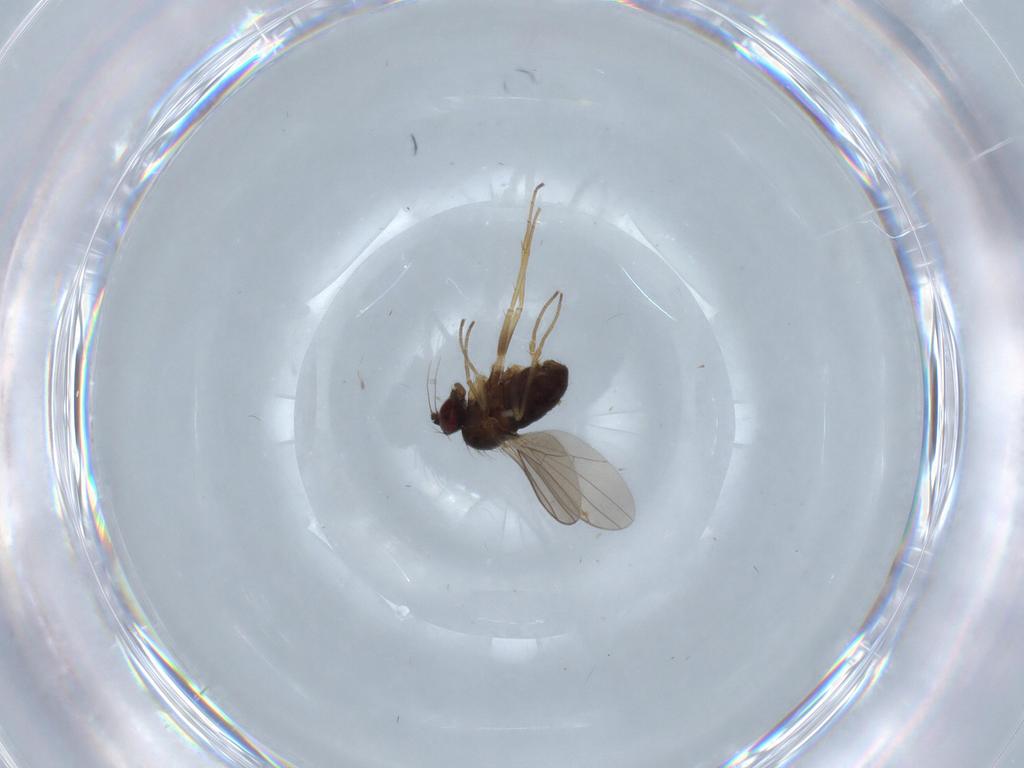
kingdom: Animalia
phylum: Arthropoda
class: Insecta
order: Diptera
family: Dolichopodidae
